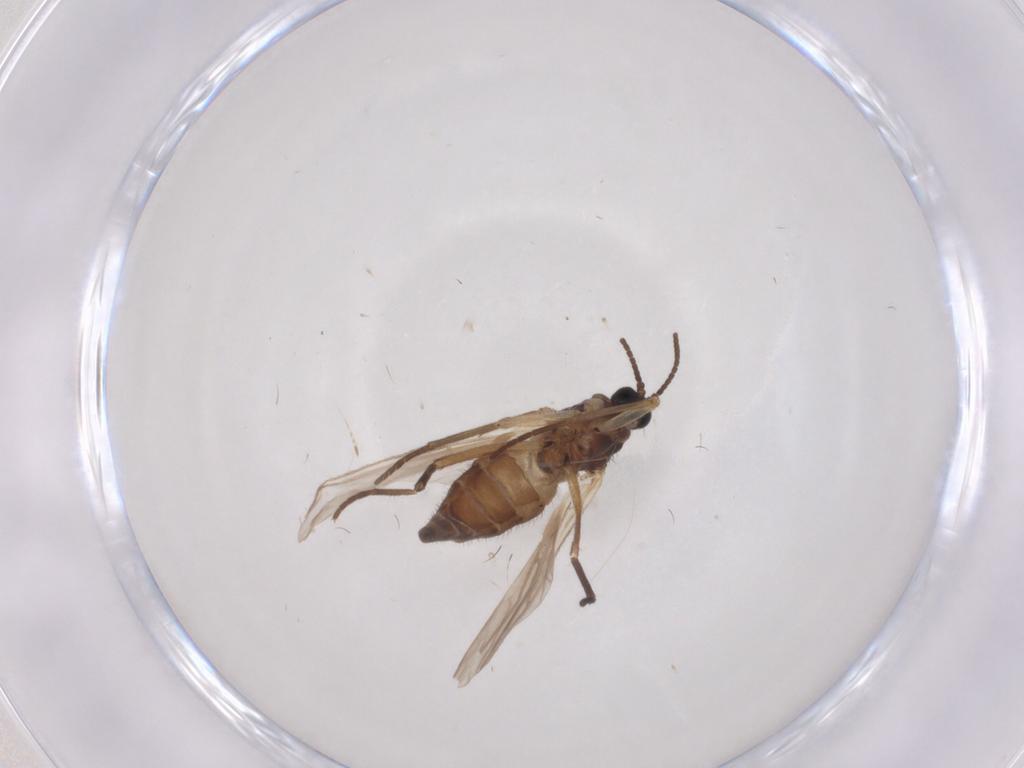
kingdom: Animalia
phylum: Arthropoda
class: Insecta
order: Diptera
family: Sciaridae
